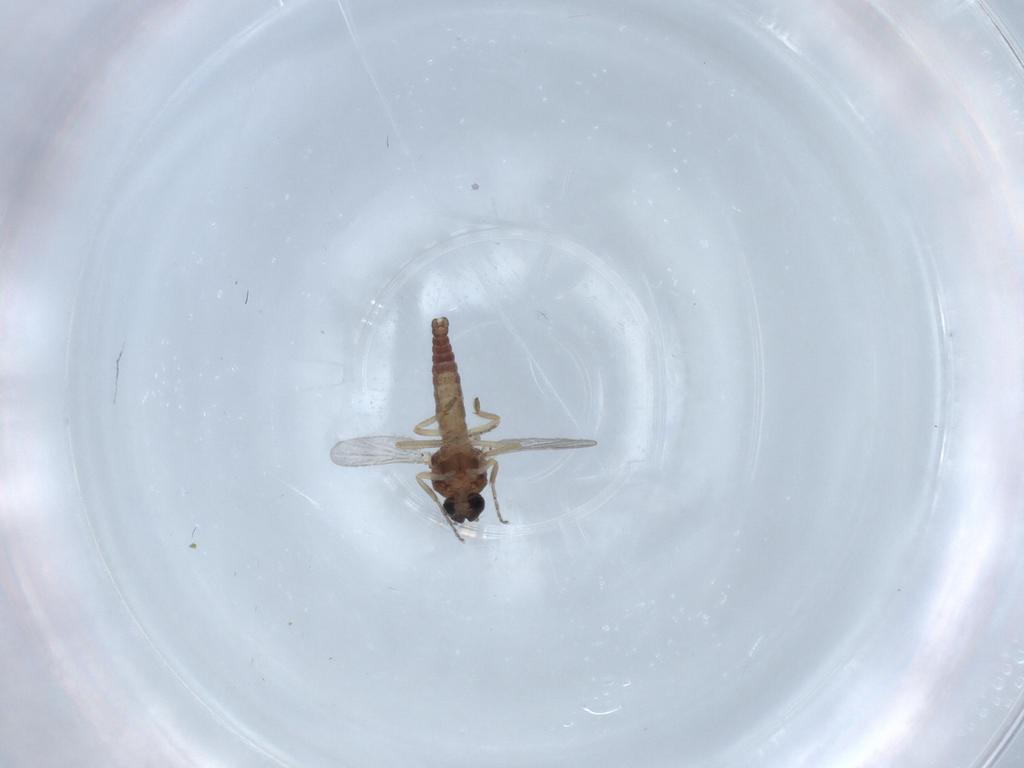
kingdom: Animalia
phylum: Arthropoda
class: Insecta
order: Diptera
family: Ceratopogonidae
